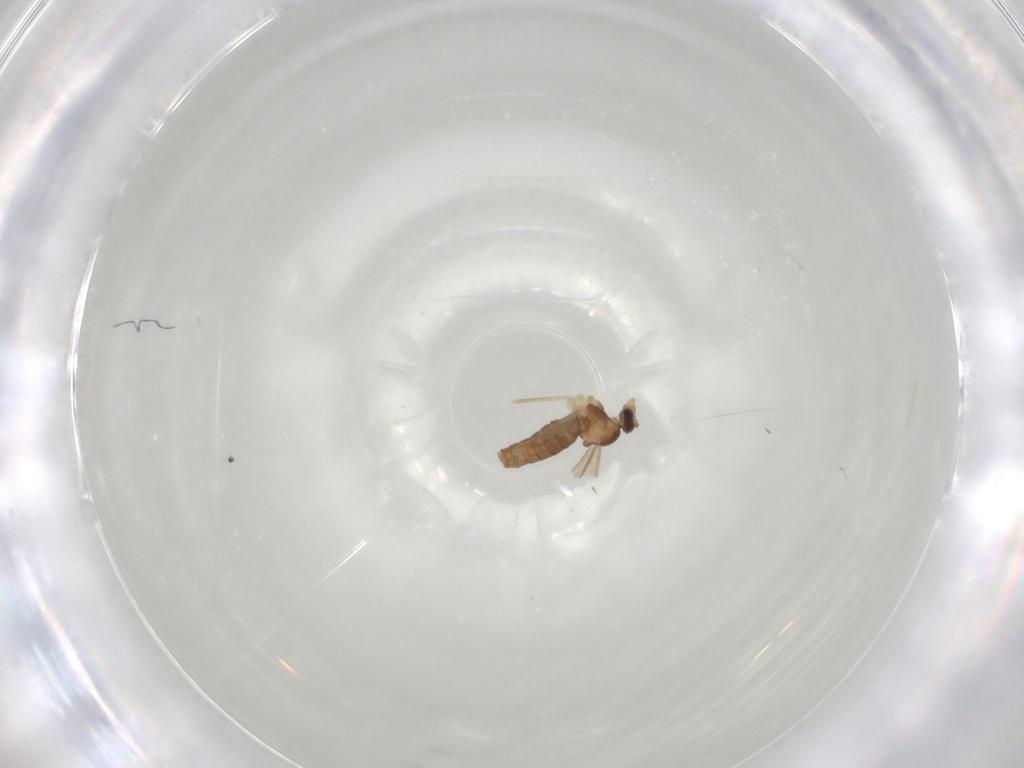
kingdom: Animalia
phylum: Arthropoda
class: Insecta
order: Diptera
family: Cecidomyiidae
